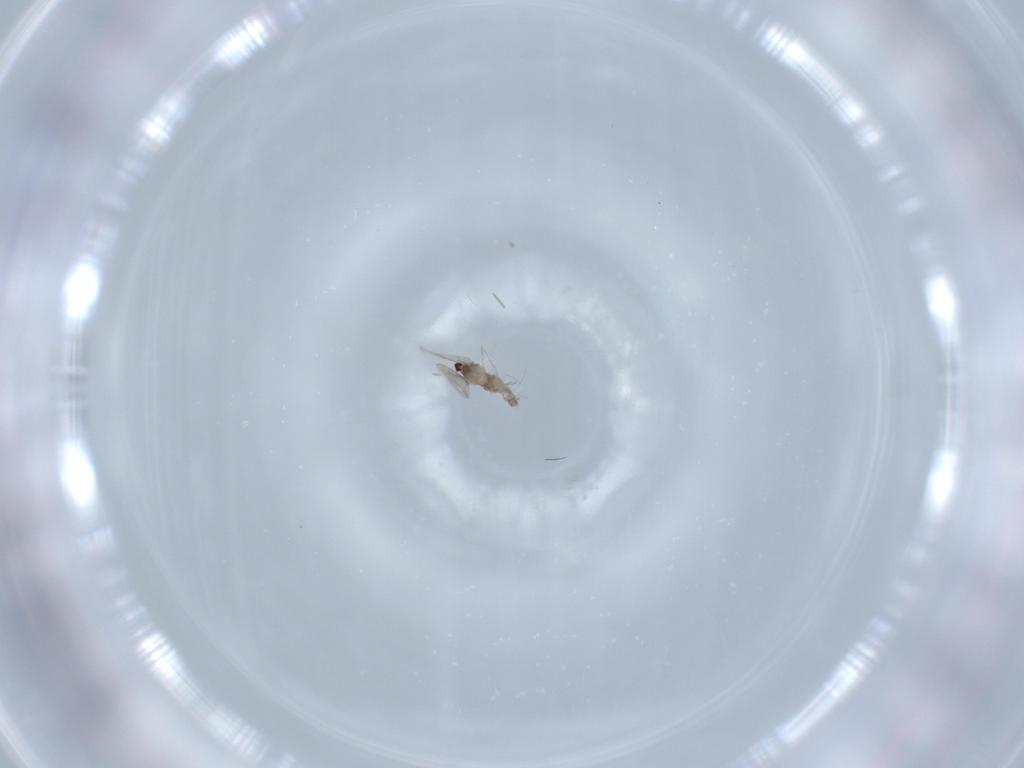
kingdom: Animalia
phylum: Arthropoda
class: Insecta
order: Diptera
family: Cecidomyiidae
